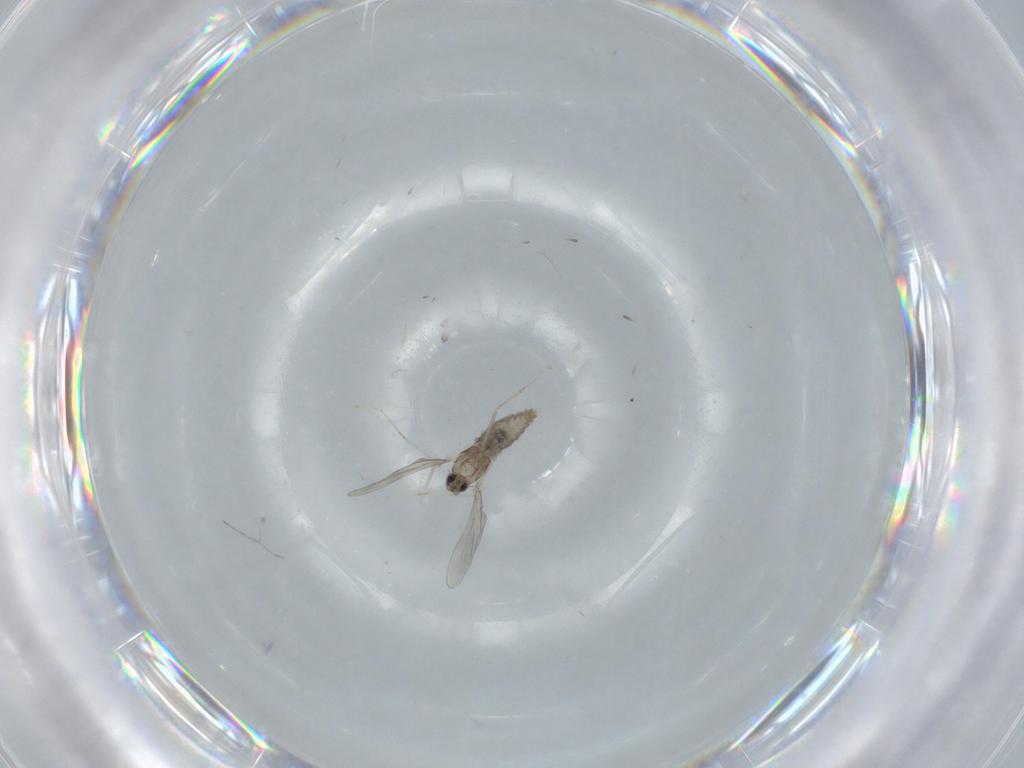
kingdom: Animalia
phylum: Arthropoda
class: Insecta
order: Diptera
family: Cecidomyiidae
